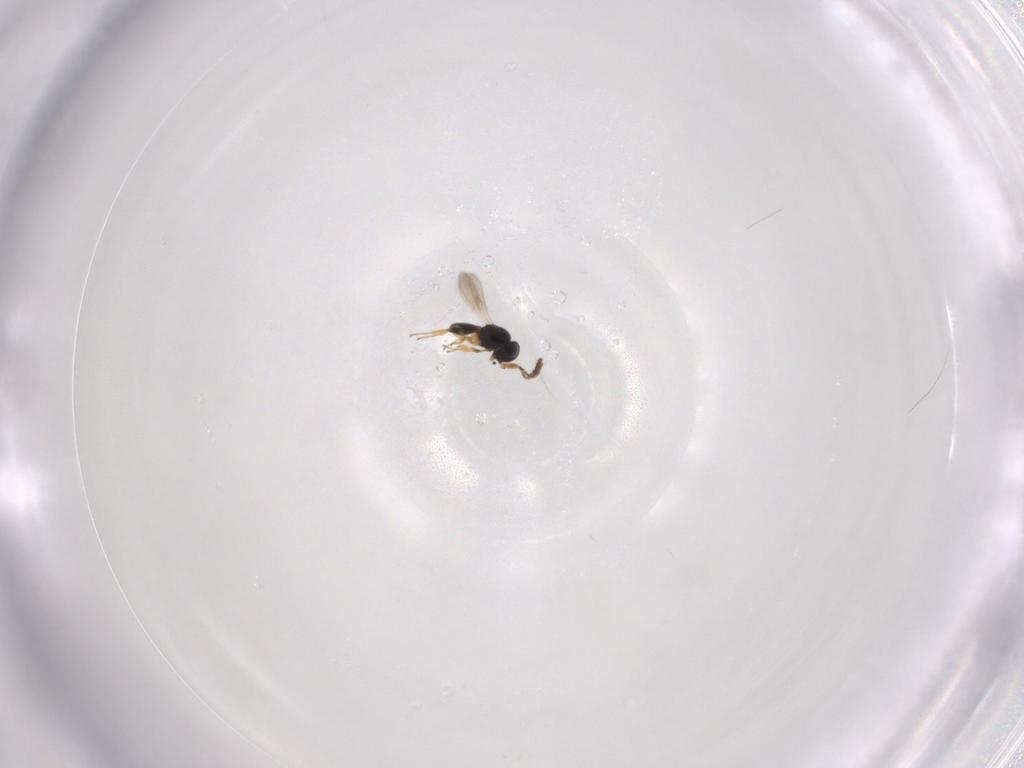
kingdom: Animalia
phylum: Arthropoda
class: Insecta
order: Hymenoptera
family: Scelionidae
